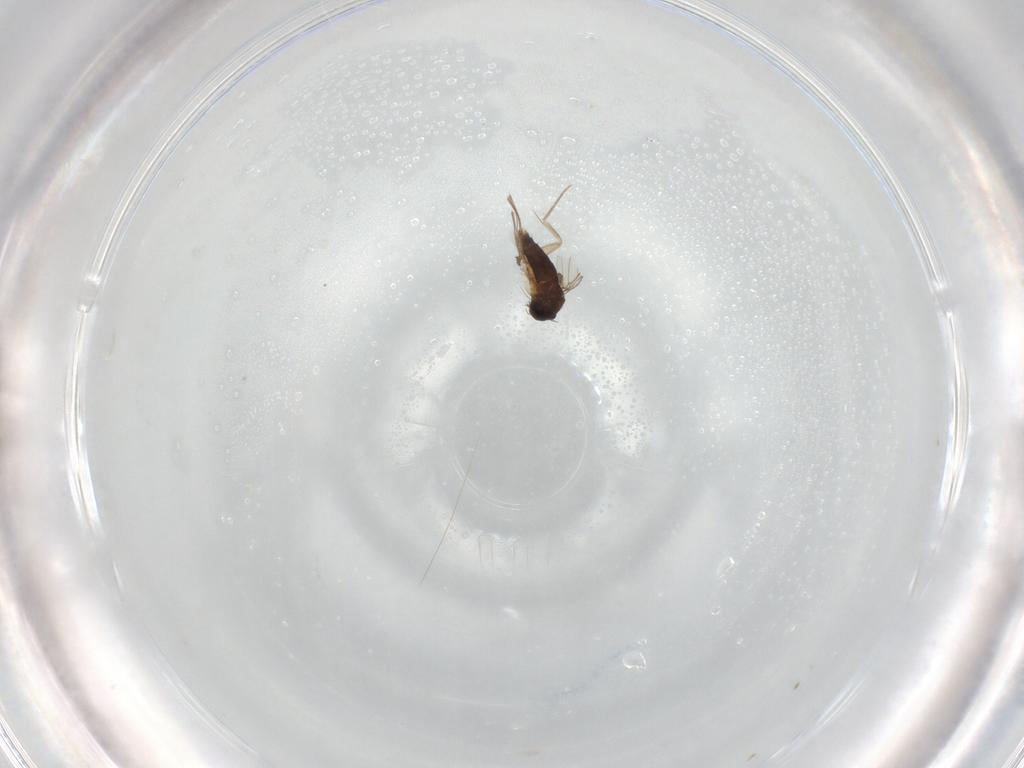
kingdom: Animalia
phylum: Arthropoda
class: Insecta
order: Diptera
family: Phoridae
